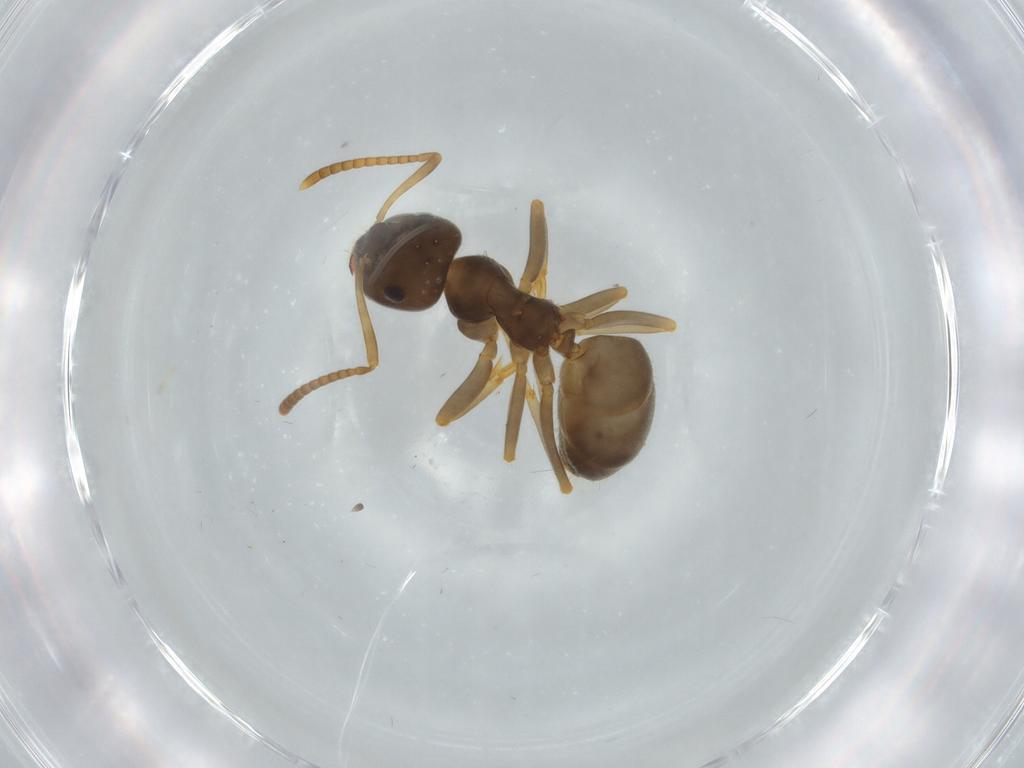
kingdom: Animalia
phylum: Arthropoda
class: Insecta
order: Hymenoptera
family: Formicidae
